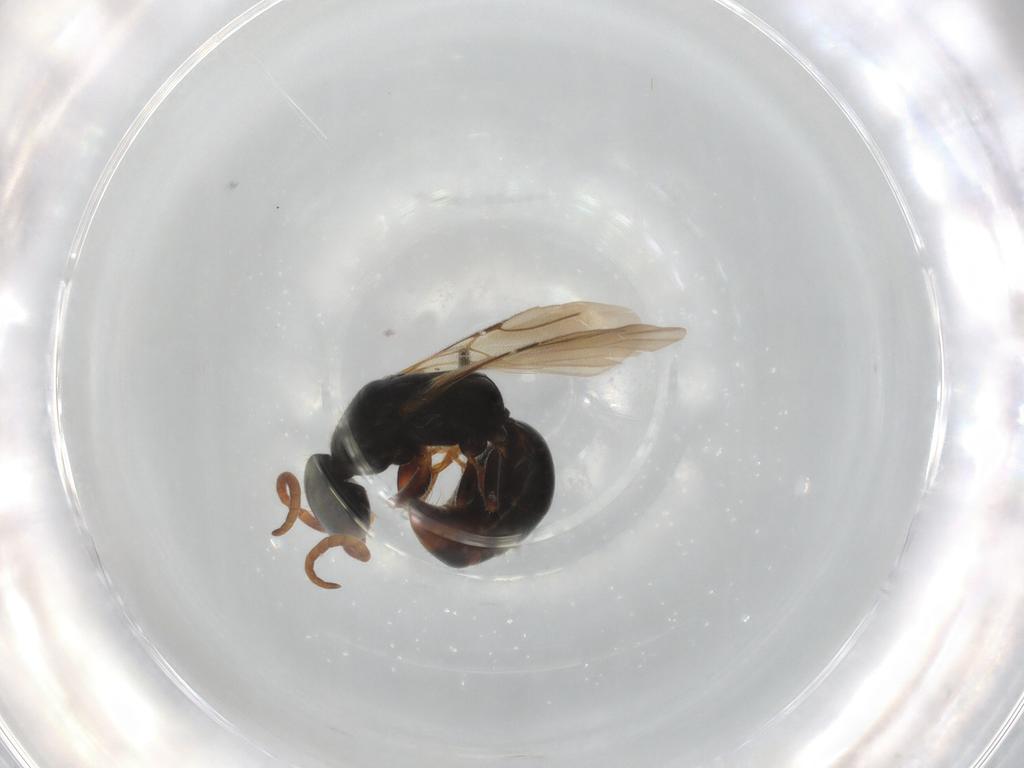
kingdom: Animalia
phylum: Arthropoda
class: Insecta
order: Hymenoptera
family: Bethylidae
